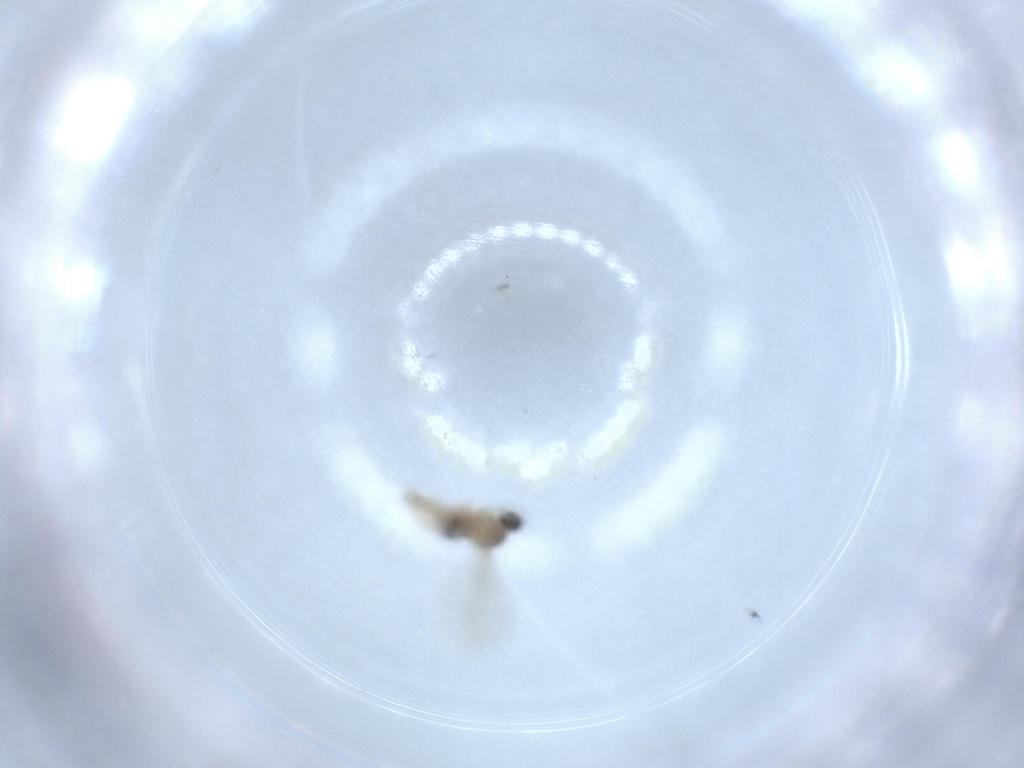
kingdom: Animalia
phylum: Arthropoda
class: Insecta
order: Diptera
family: Cecidomyiidae
